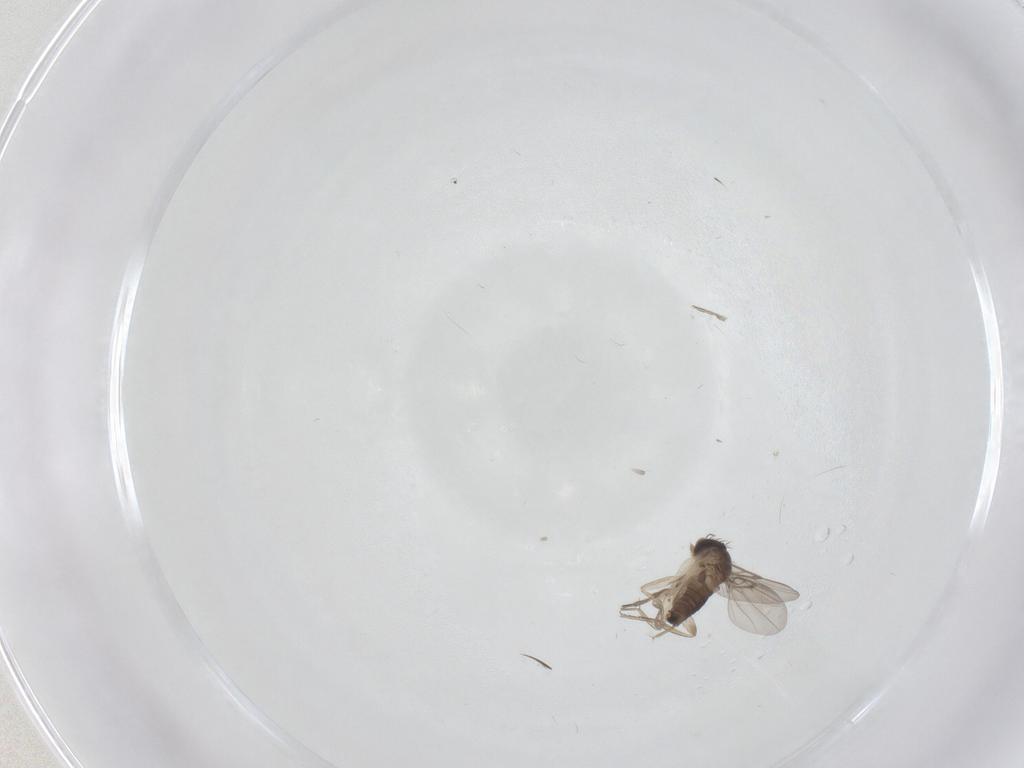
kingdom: Animalia
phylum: Arthropoda
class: Insecta
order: Diptera
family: Phoridae
